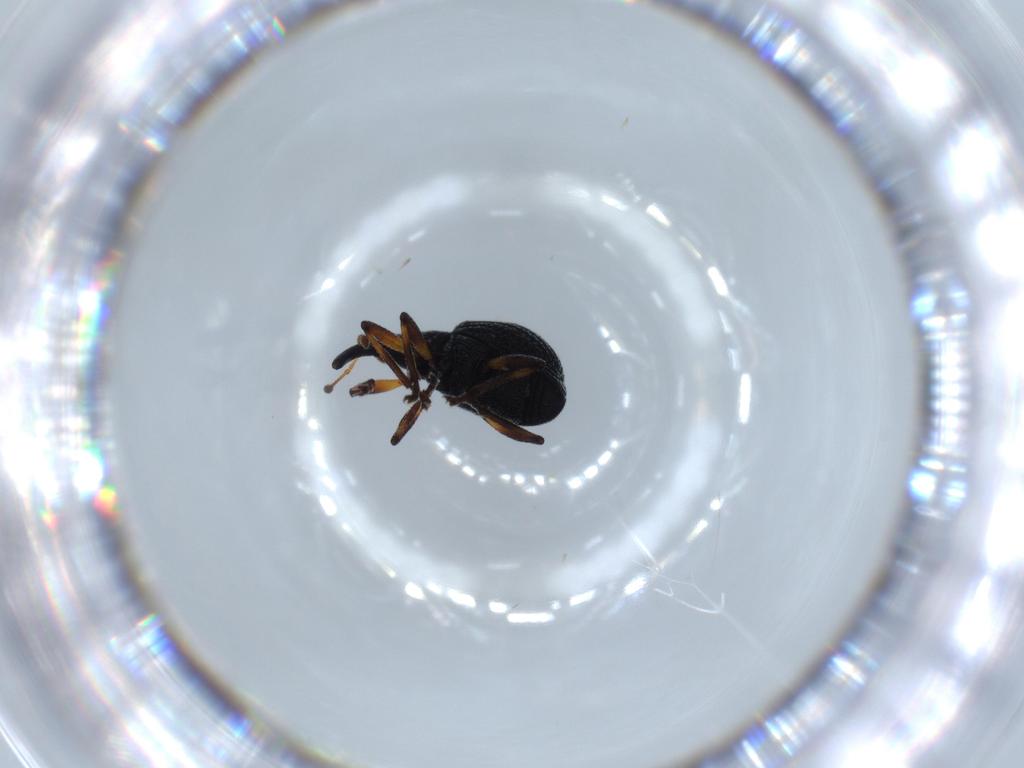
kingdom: Animalia
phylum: Arthropoda
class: Insecta
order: Coleoptera
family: Brentidae
